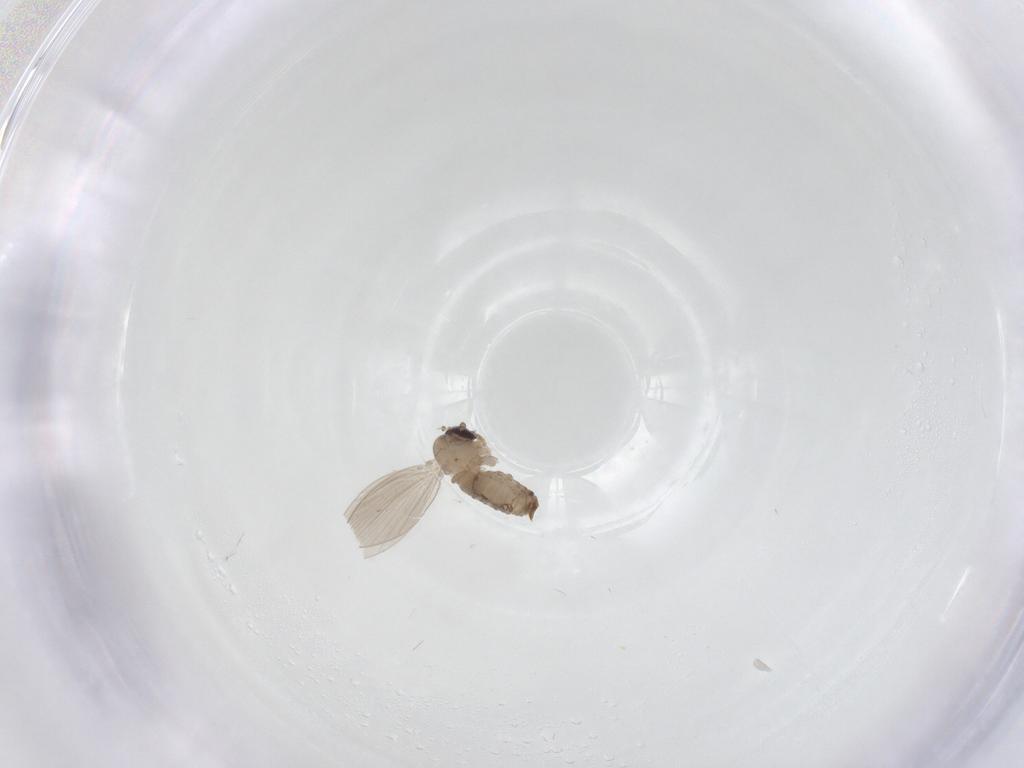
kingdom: Animalia
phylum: Arthropoda
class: Insecta
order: Diptera
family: Psychodidae
